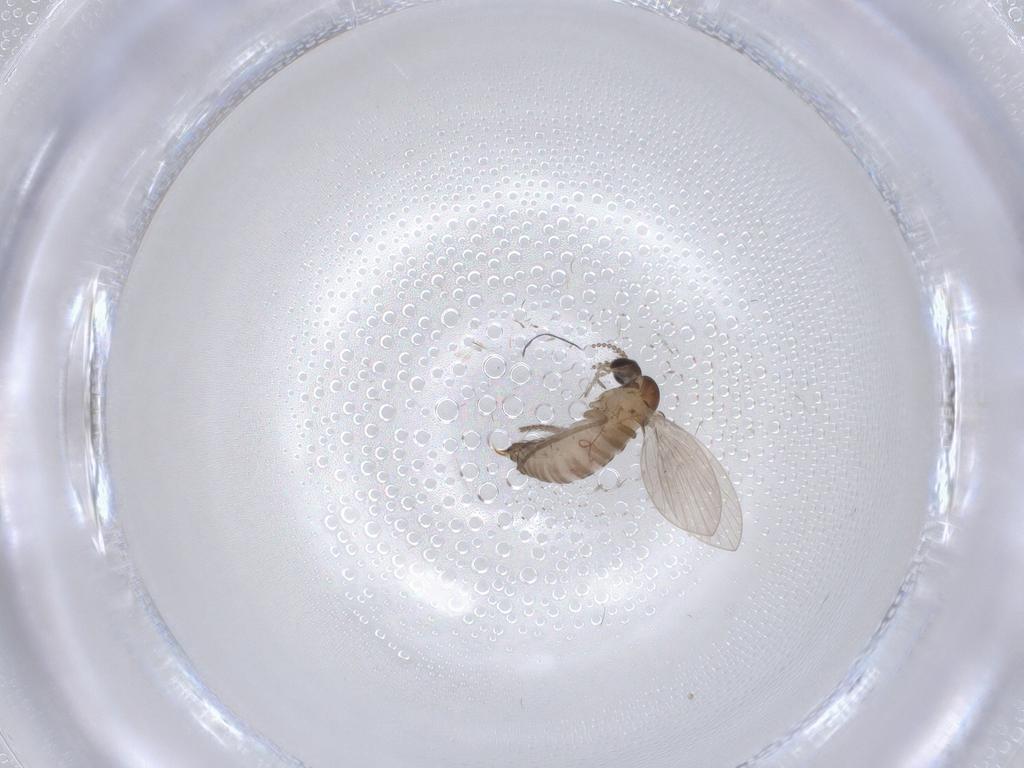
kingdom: Animalia
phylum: Arthropoda
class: Insecta
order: Diptera
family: Psychodidae
